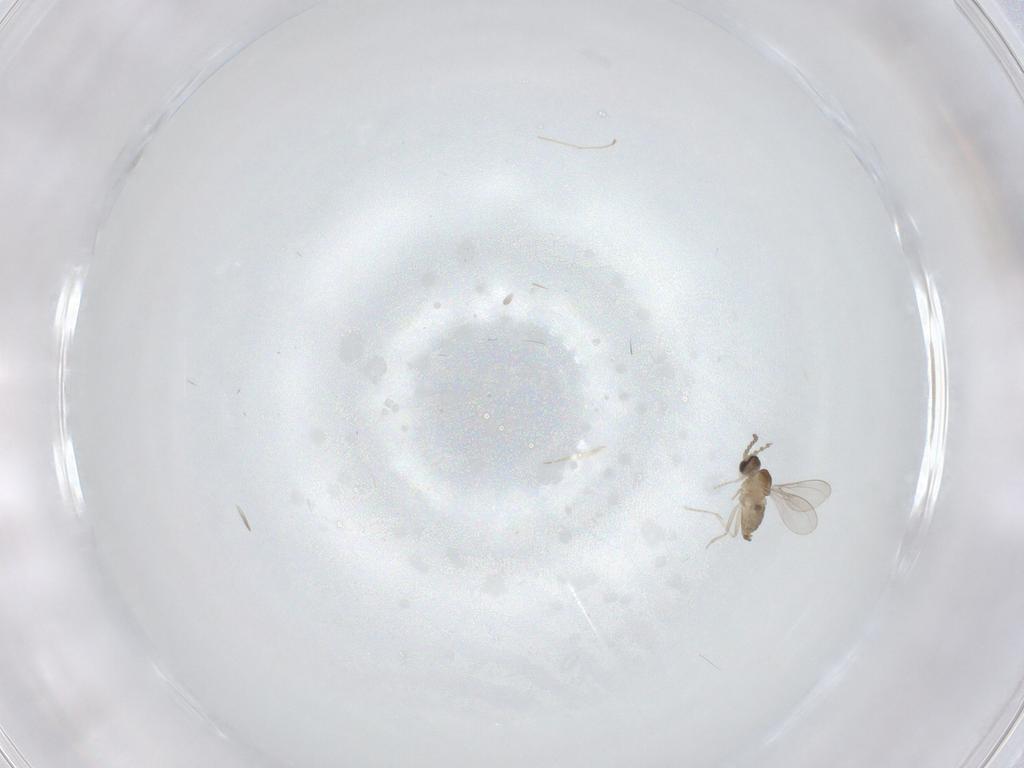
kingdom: Animalia
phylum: Arthropoda
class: Insecta
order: Diptera
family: Cecidomyiidae
